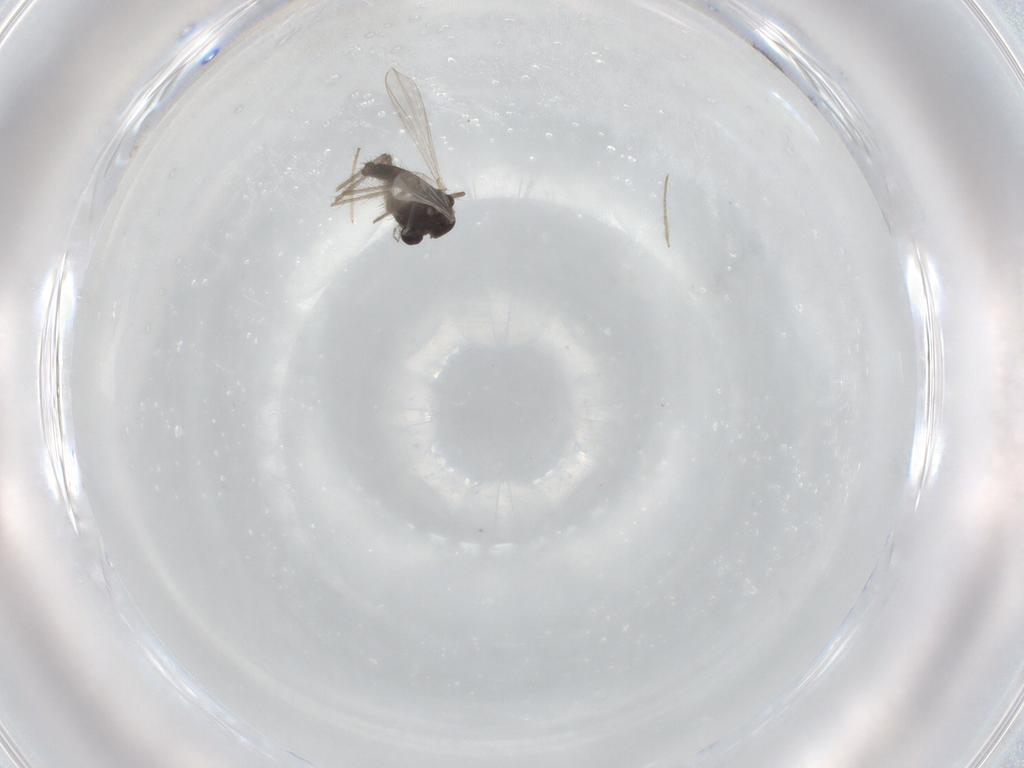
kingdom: Animalia
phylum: Arthropoda
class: Insecta
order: Diptera
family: Chironomidae
